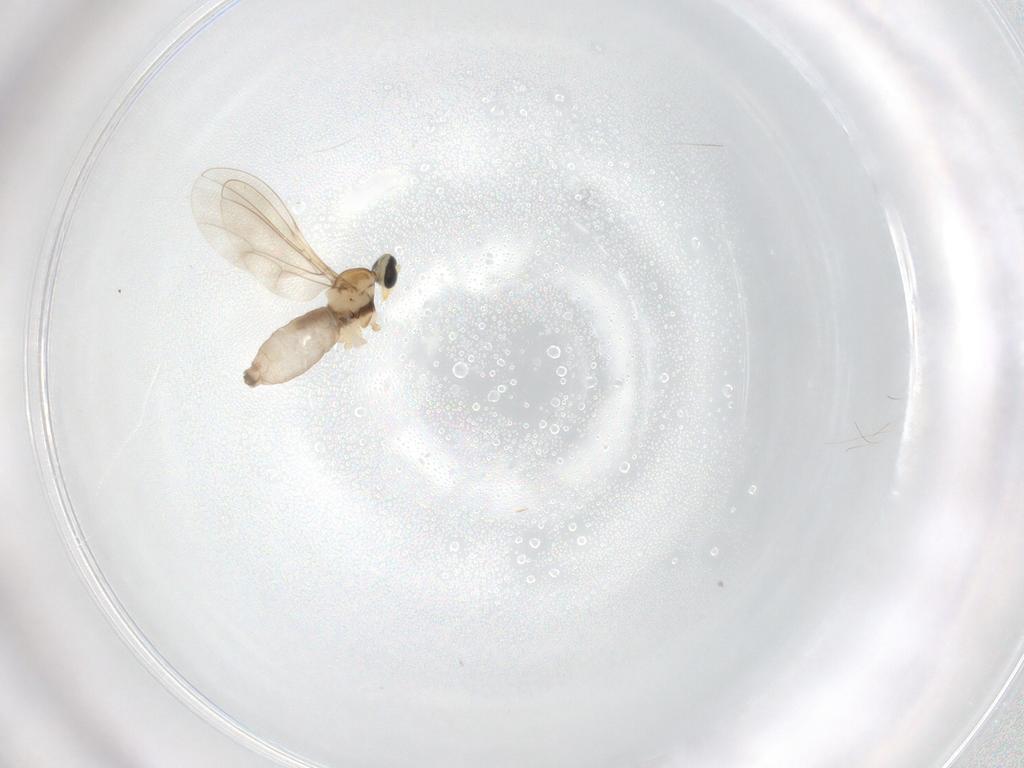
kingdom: Animalia
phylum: Arthropoda
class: Insecta
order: Diptera
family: Cecidomyiidae
